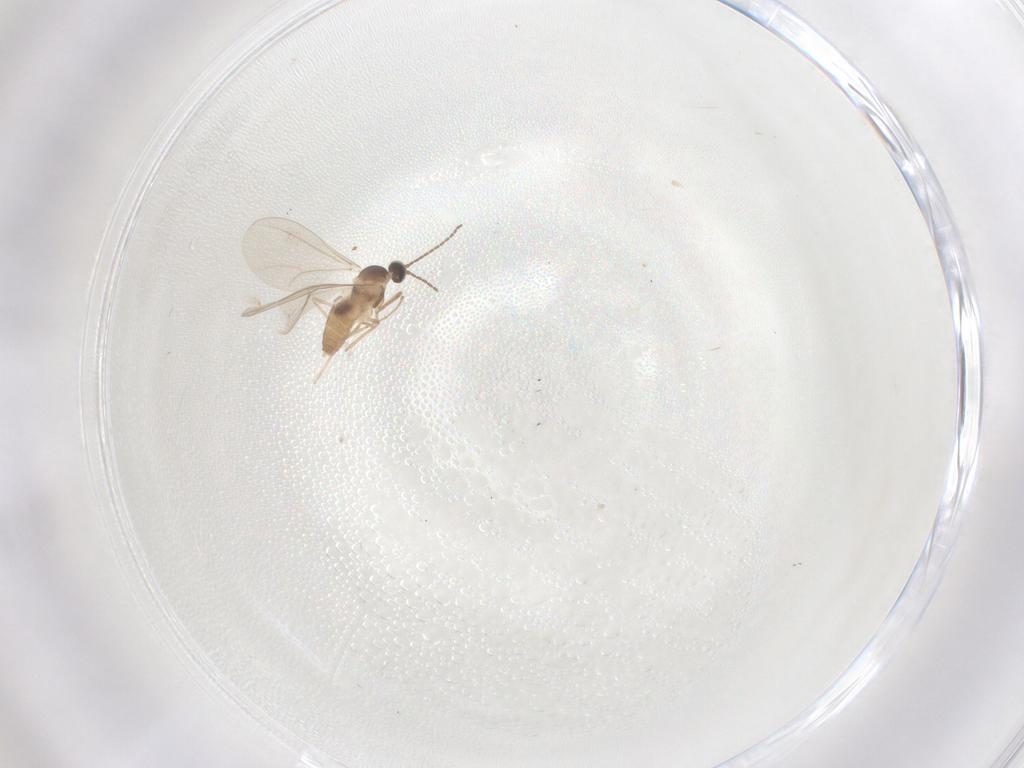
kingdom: Animalia
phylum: Arthropoda
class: Insecta
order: Diptera
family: Cecidomyiidae
